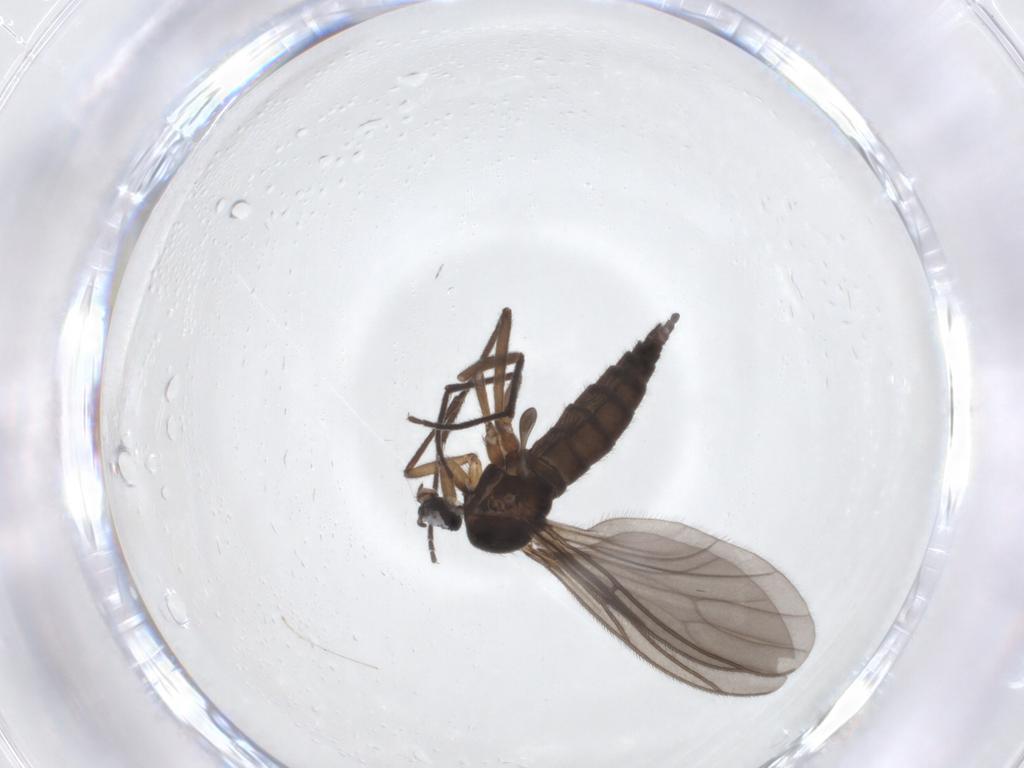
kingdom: Animalia
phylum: Arthropoda
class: Insecta
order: Diptera
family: Sciaridae
